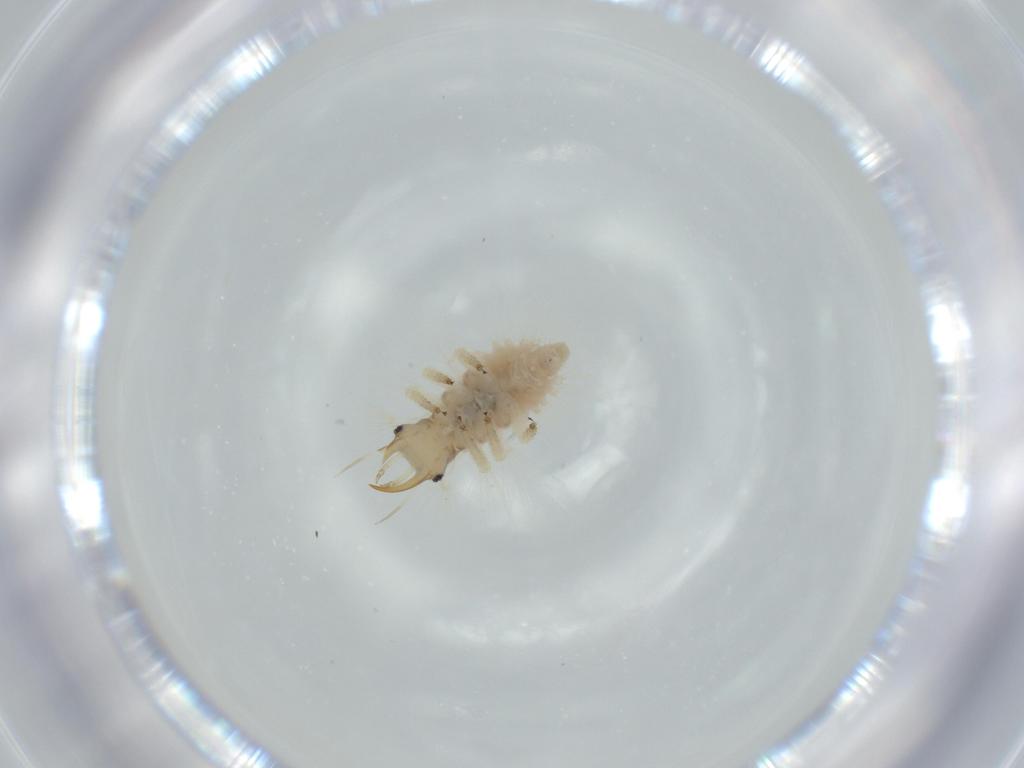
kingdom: Animalia
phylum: Arthropoda
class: Insecta
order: Neuroptera
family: Chrysopidae
